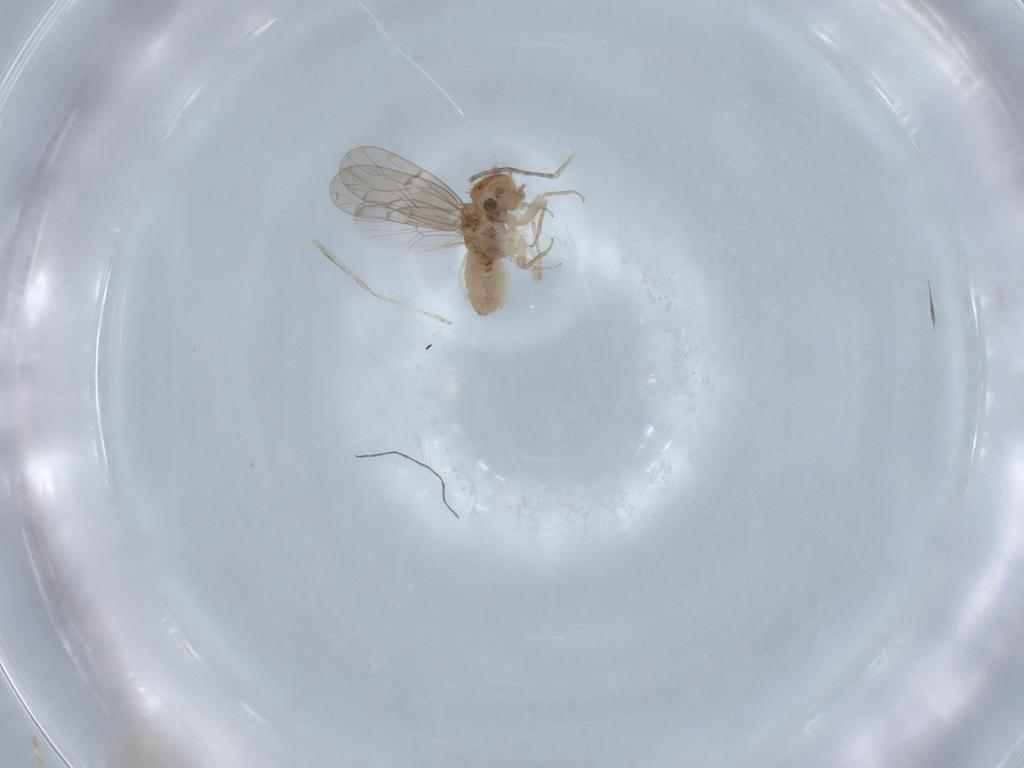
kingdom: Animalia
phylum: Arthropoda
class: Insecta
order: Psocodea
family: Ectopsocidae
